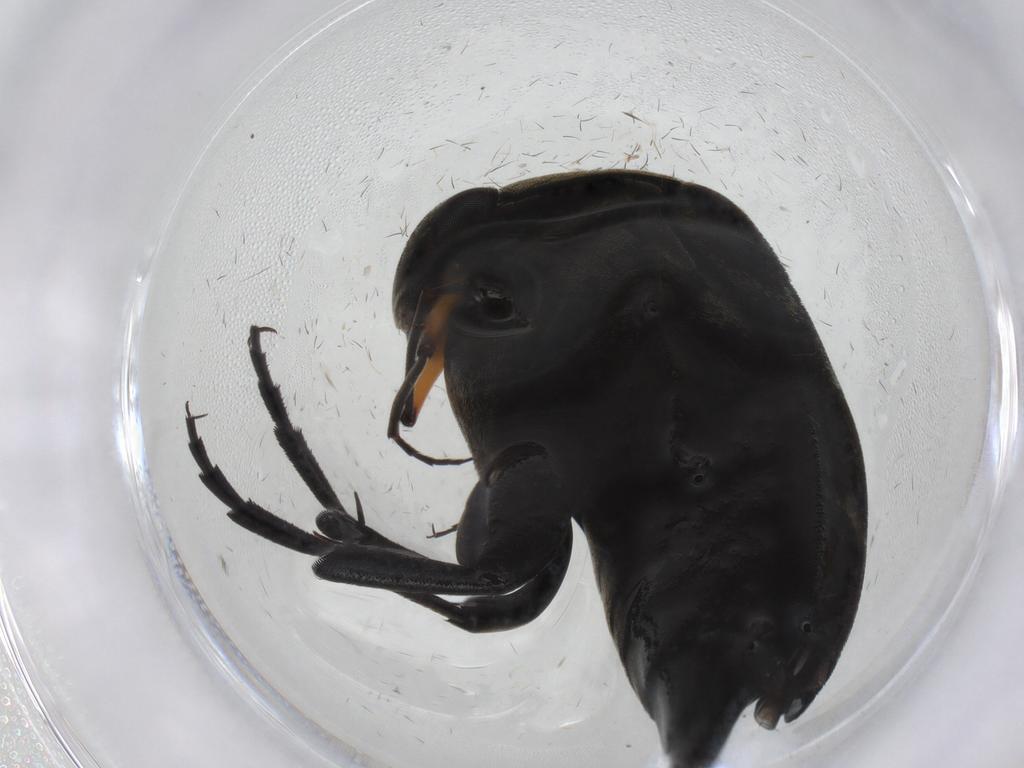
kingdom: Animalia
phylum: Arthropoda
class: Insecta
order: Coleoptera
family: Mordellidae
